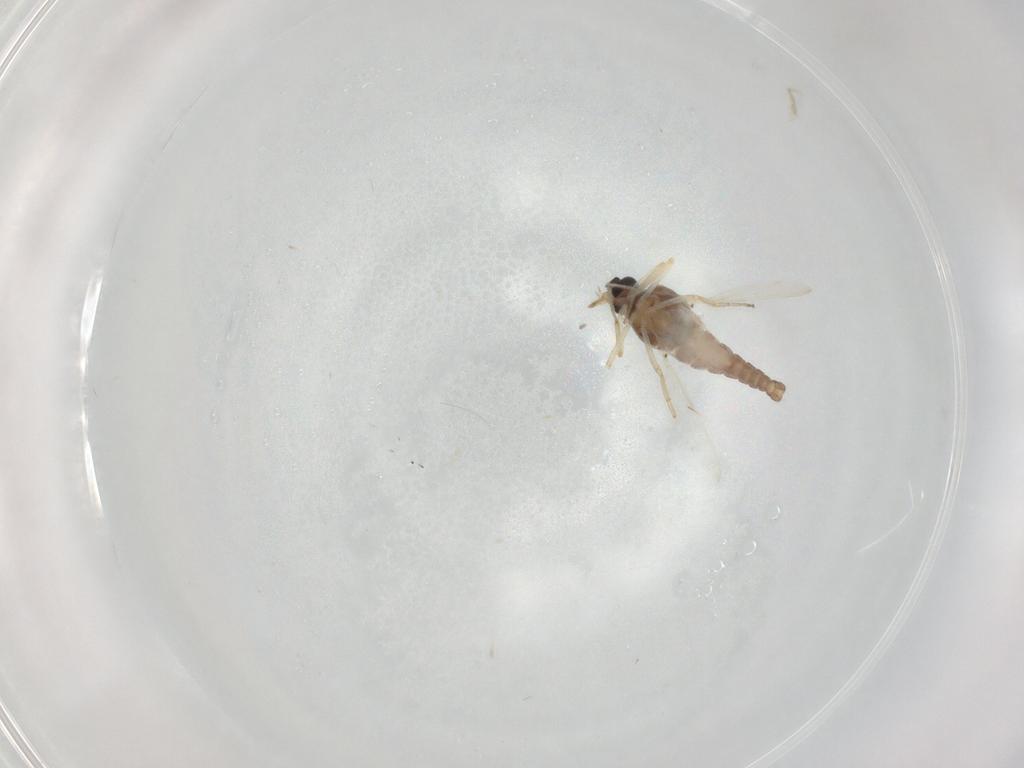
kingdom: Animalia
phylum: Arthropoda
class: Insecta
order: Diptera
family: Ceratopogonidae
